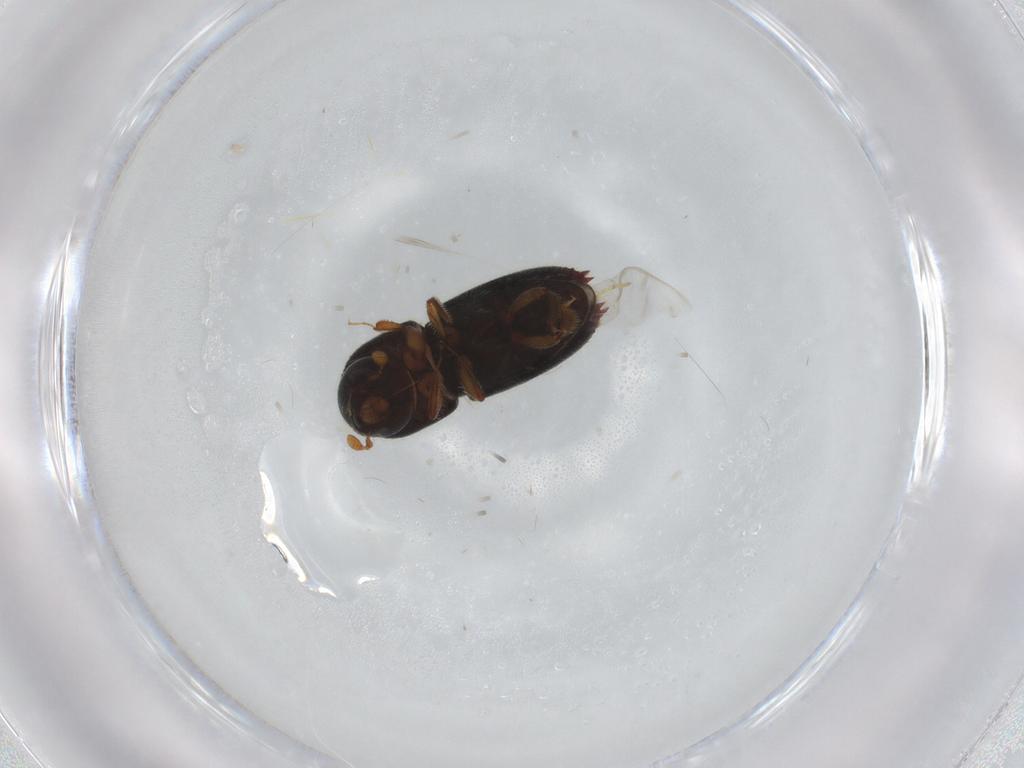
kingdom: Animalia
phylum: Arthropoda
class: Insecta
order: Coleoptera
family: Curculionidae
